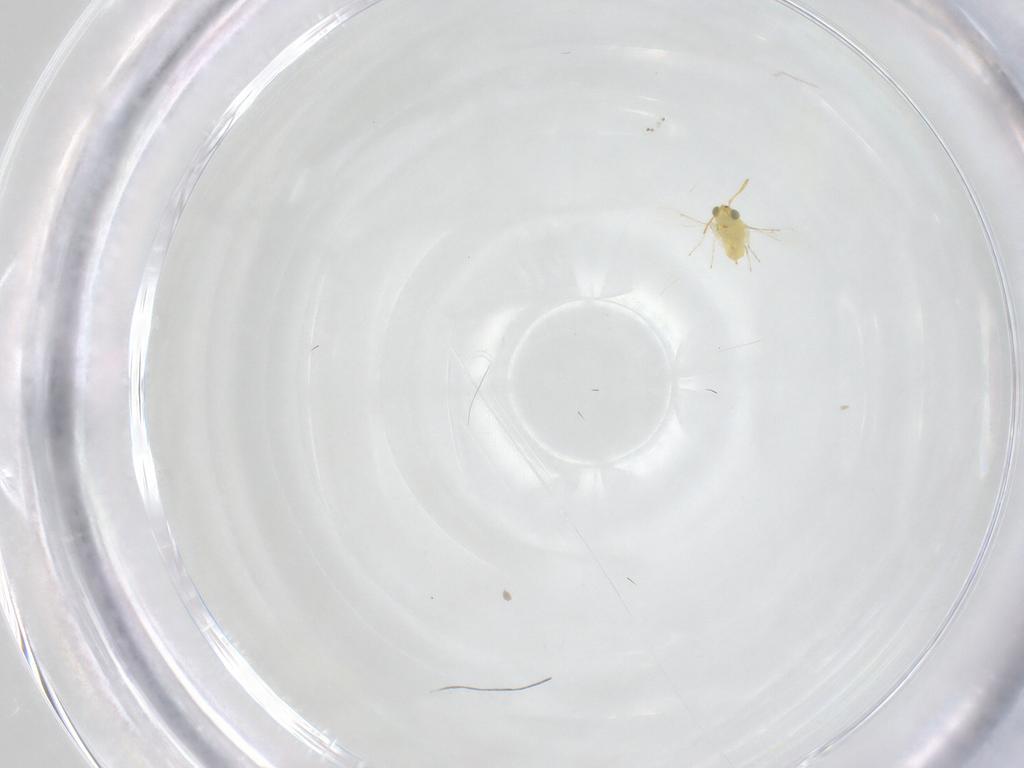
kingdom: Animalia
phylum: Arthropoda
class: Insecta
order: Hymenoptera
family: Aphelinidae
